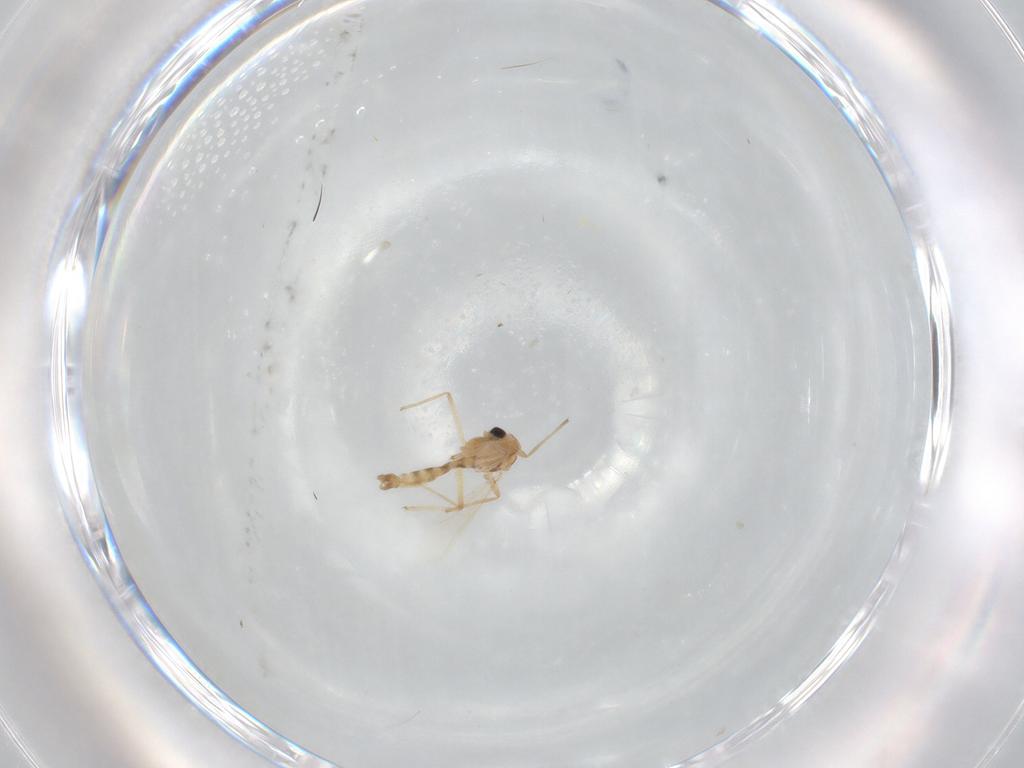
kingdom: Animalia
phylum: Arthropoda
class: Insecta
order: Diptera
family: Chironomidae
